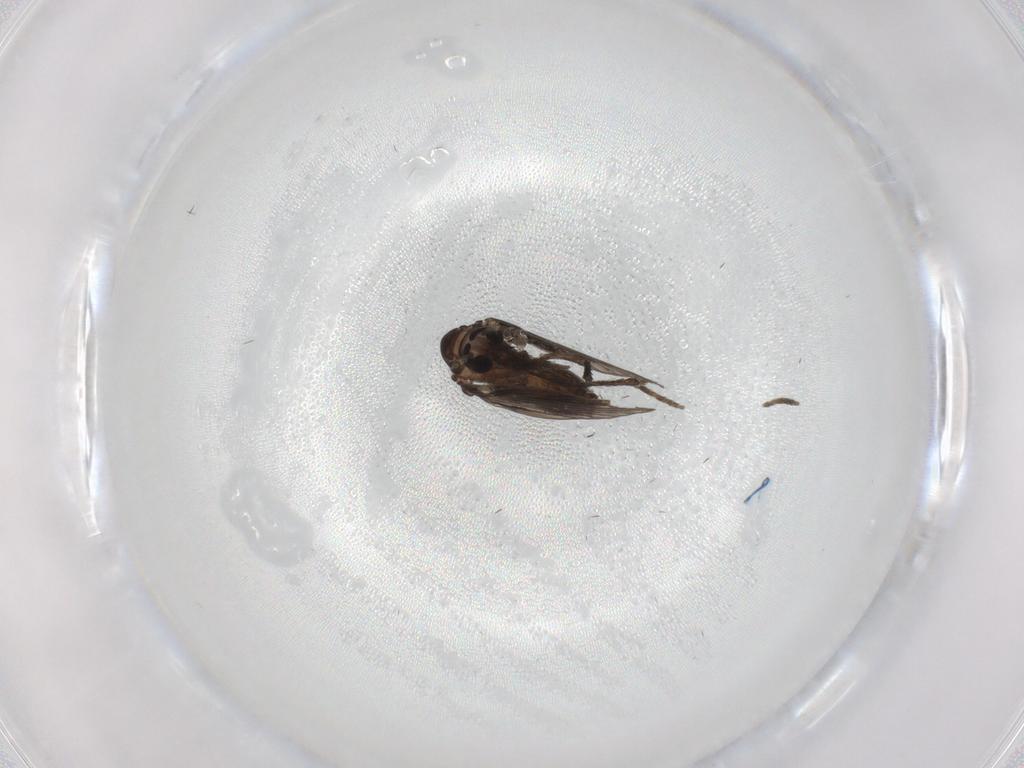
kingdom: Animalia
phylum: Arthropoda
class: Insecta
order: Diptera
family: Psychodidae
